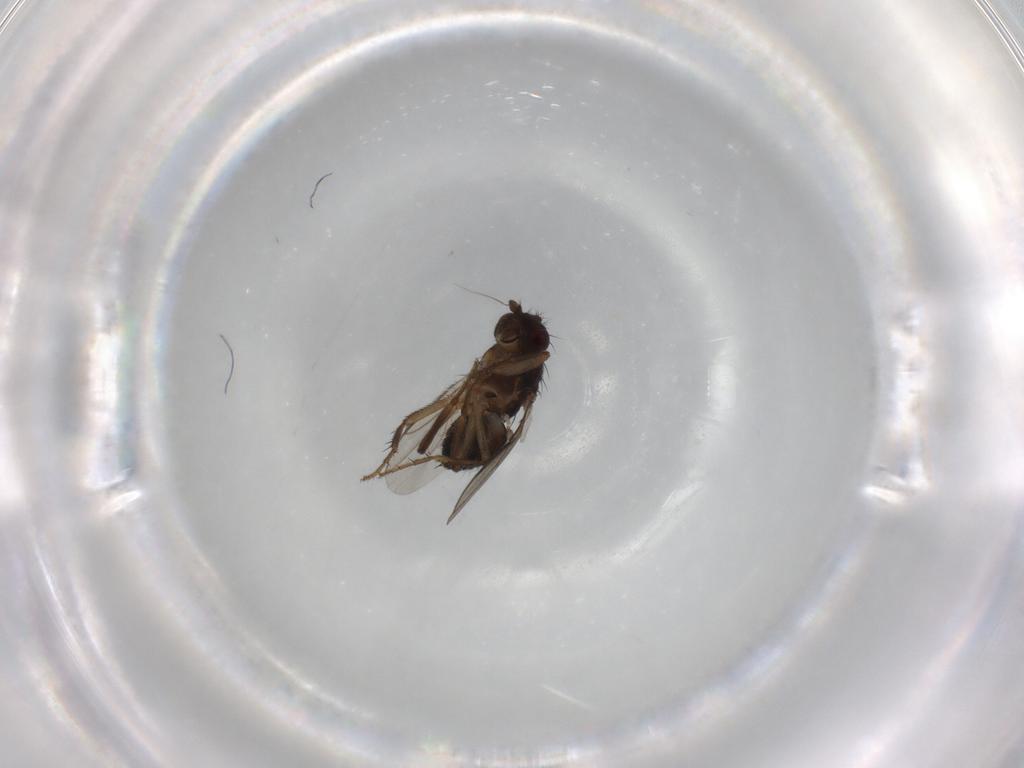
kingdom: Animalia
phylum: Arthropoda
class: Insecta
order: Diptera
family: Sphaeroceridae
